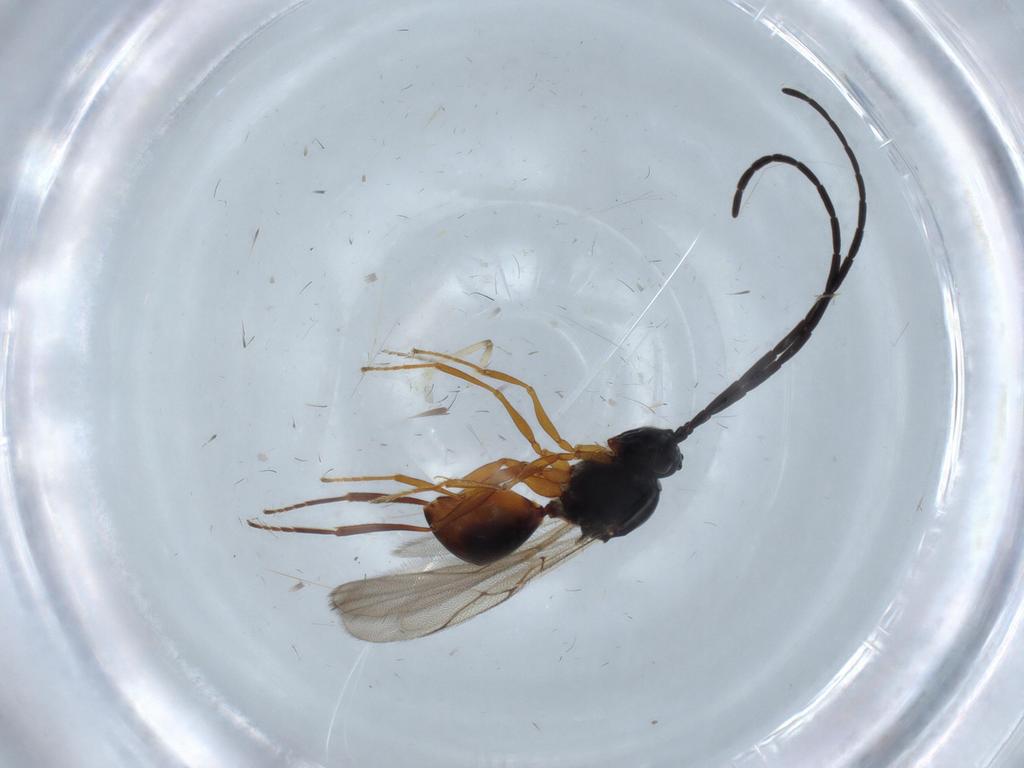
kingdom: Animalia
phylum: Arthropoda
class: Insecta
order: Hymenoptera
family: Figitidae
